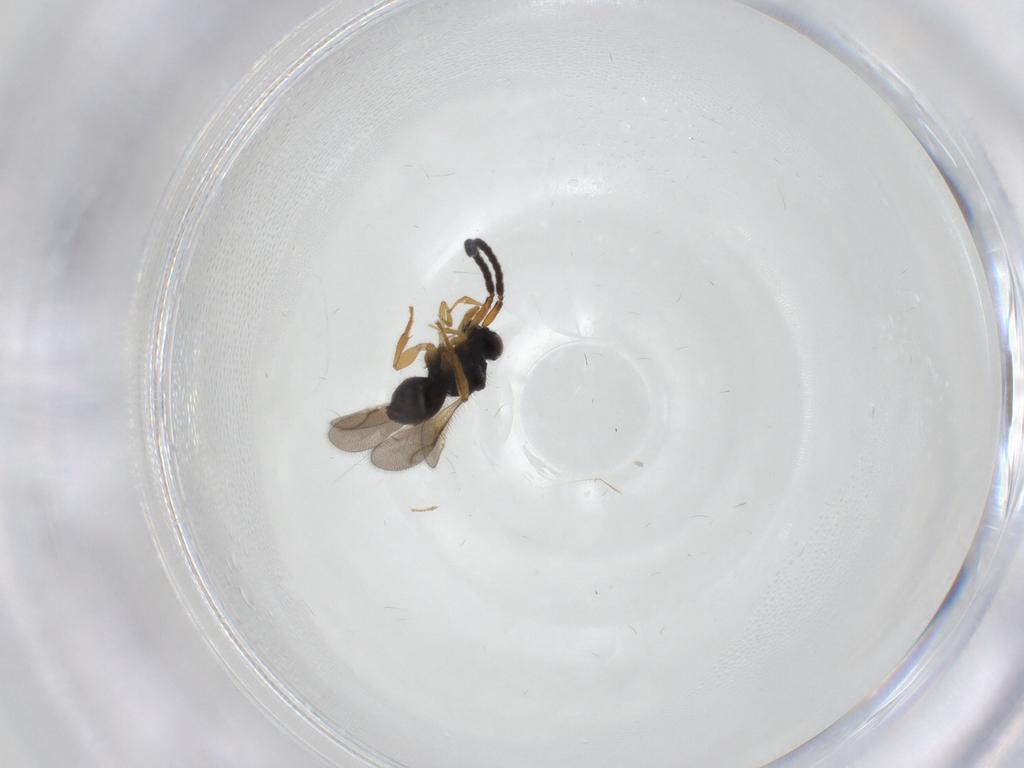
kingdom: Animalia
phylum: Arthropoda
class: Insecta
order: Hymenoptera
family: Ceraphronidae
